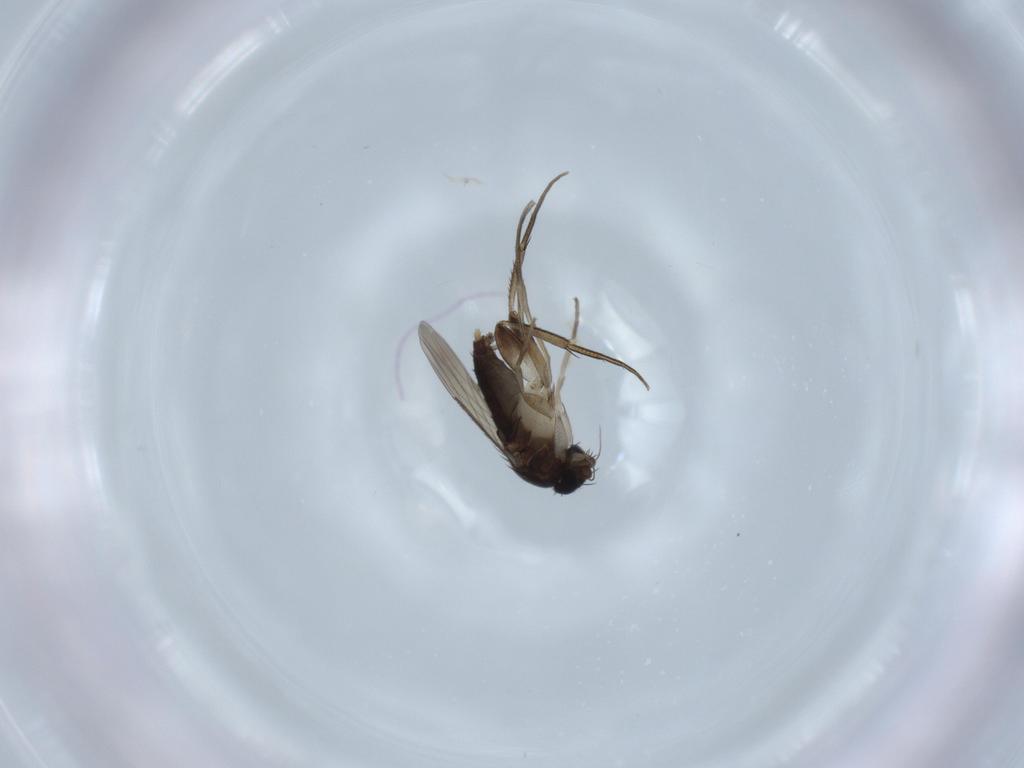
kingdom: Animalia
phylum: Arthropoda
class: Insecta
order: Diptera
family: Phoridae
